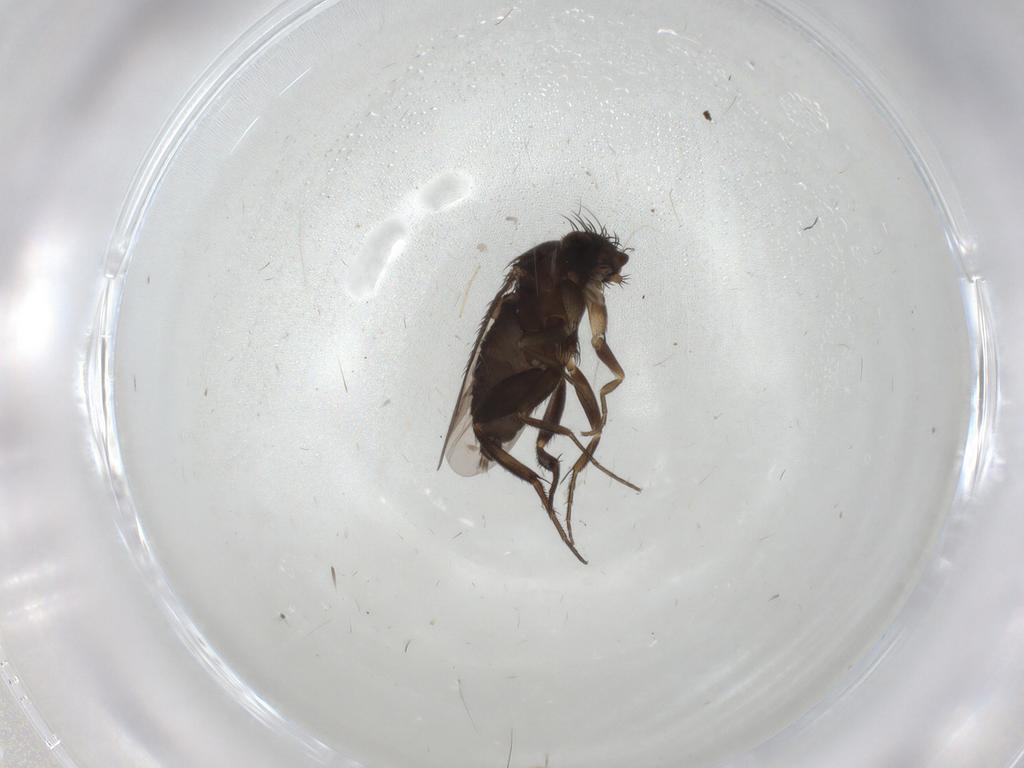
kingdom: Animalia
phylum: Arthropoda
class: Insecta
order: Diptera
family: Phoridae
